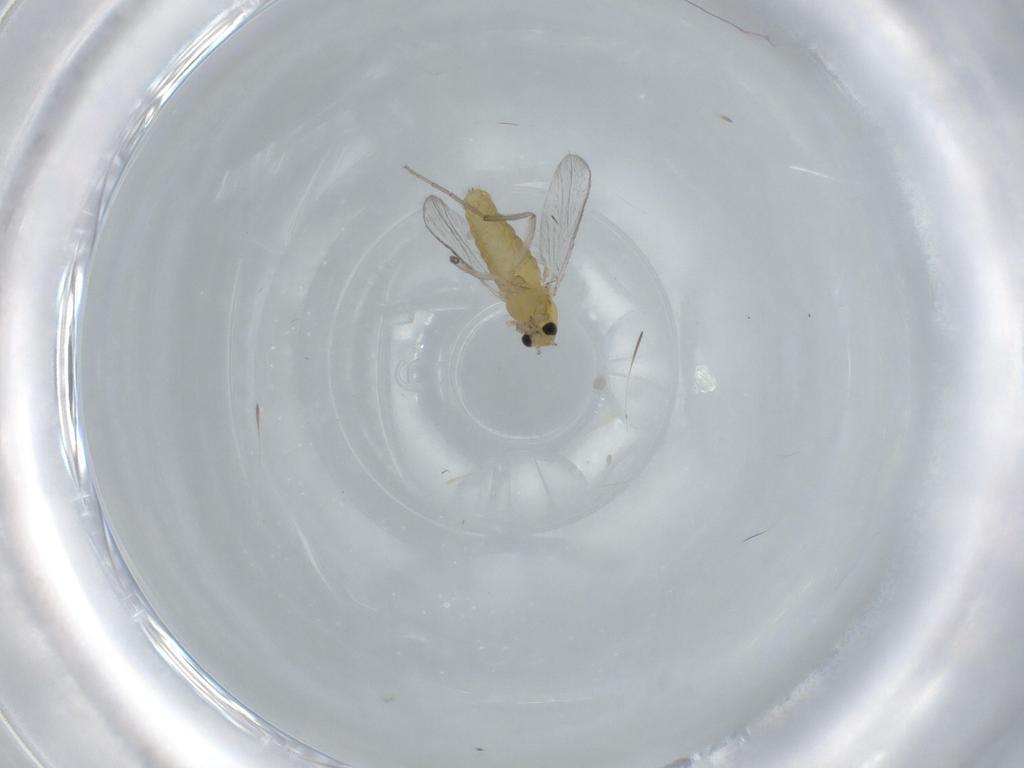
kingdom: Animalia
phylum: Arthropoda
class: Insecta
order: Diptera
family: Chironomidae
